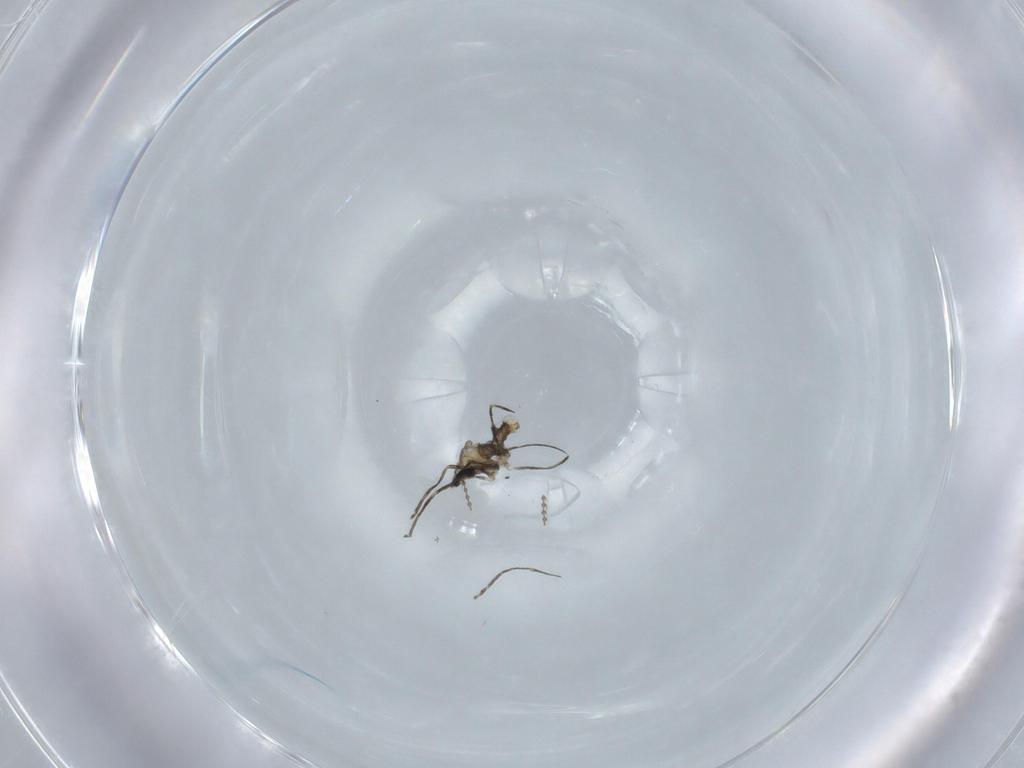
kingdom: Animalia
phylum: Arthropoda
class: Insecta
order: Diptera
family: Cecidomyiidae
